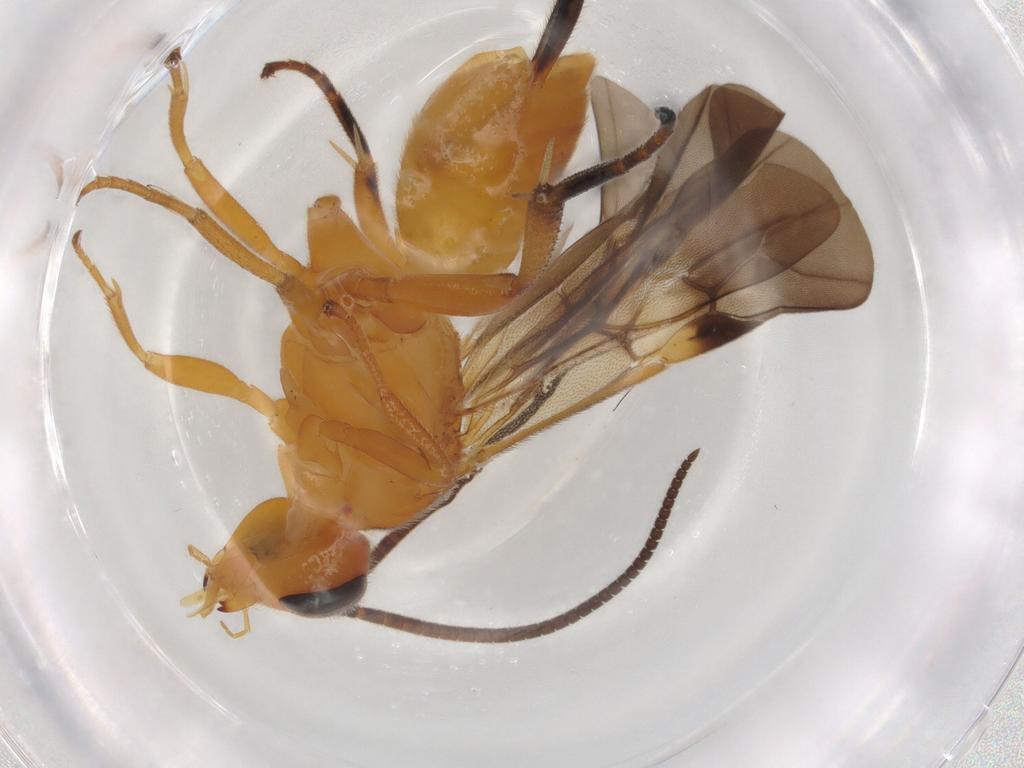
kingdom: Animalia
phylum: Arthropoda
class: Insecta
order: Hymenoptera
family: Braconidae
